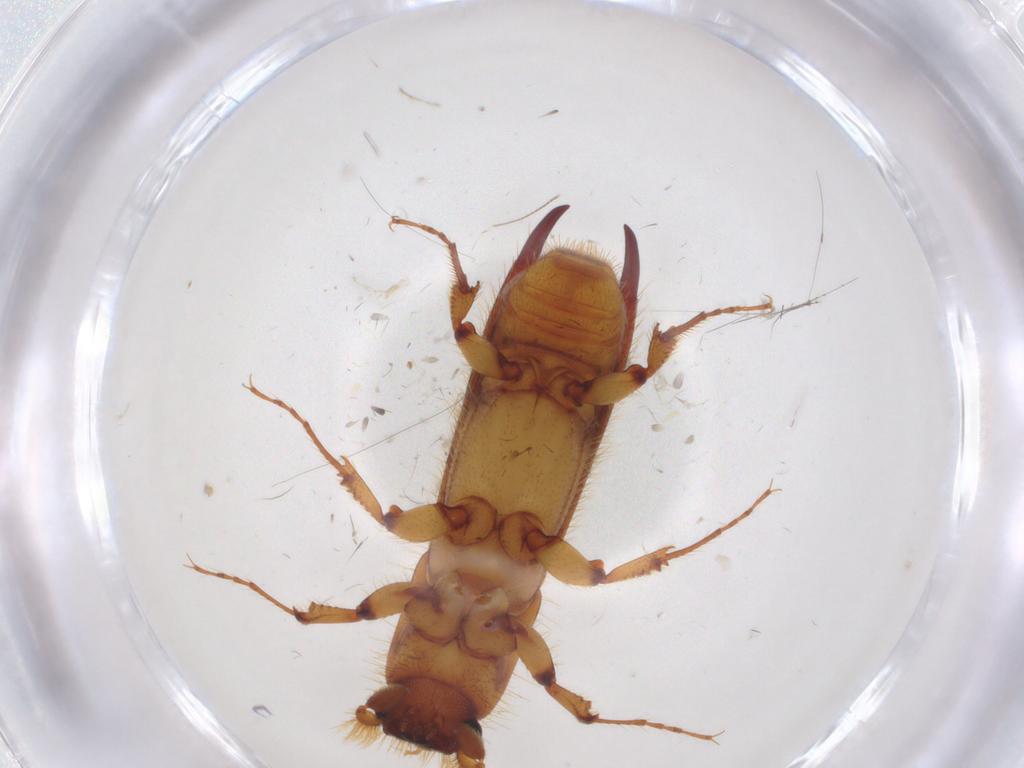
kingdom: Animalia
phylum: Arthropoda
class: Insecta
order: Coleoptera
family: Curculionidae
